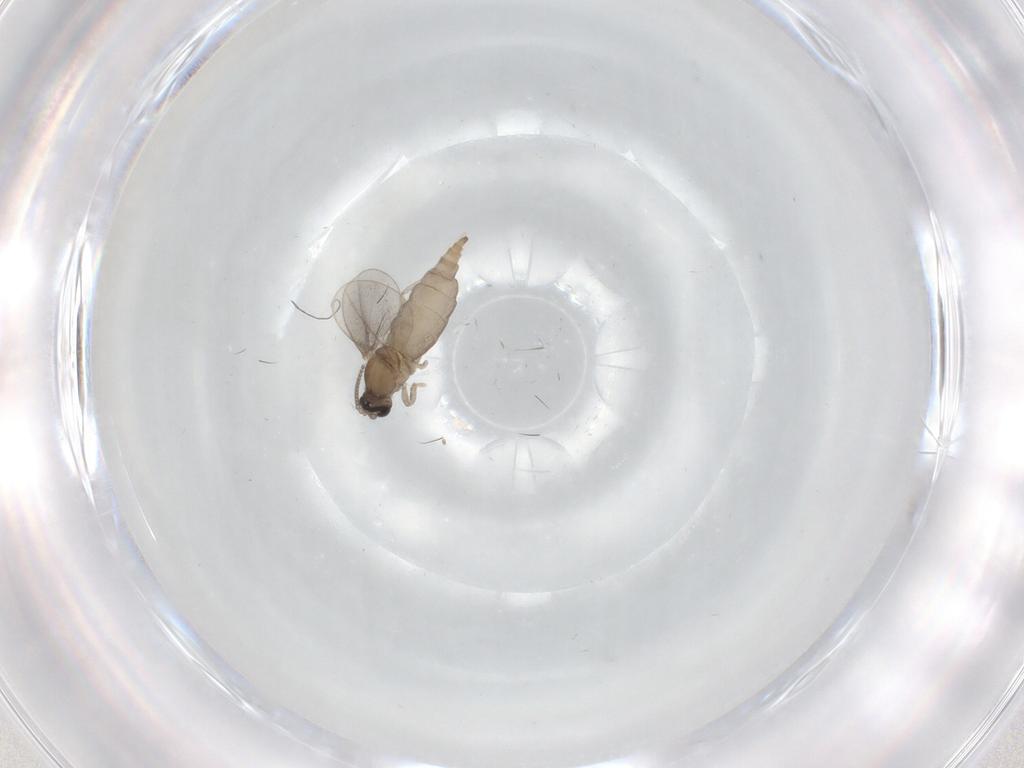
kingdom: Animalia
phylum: Arthropoda
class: Insecta
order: Diptera
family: Cecidomyiidae
